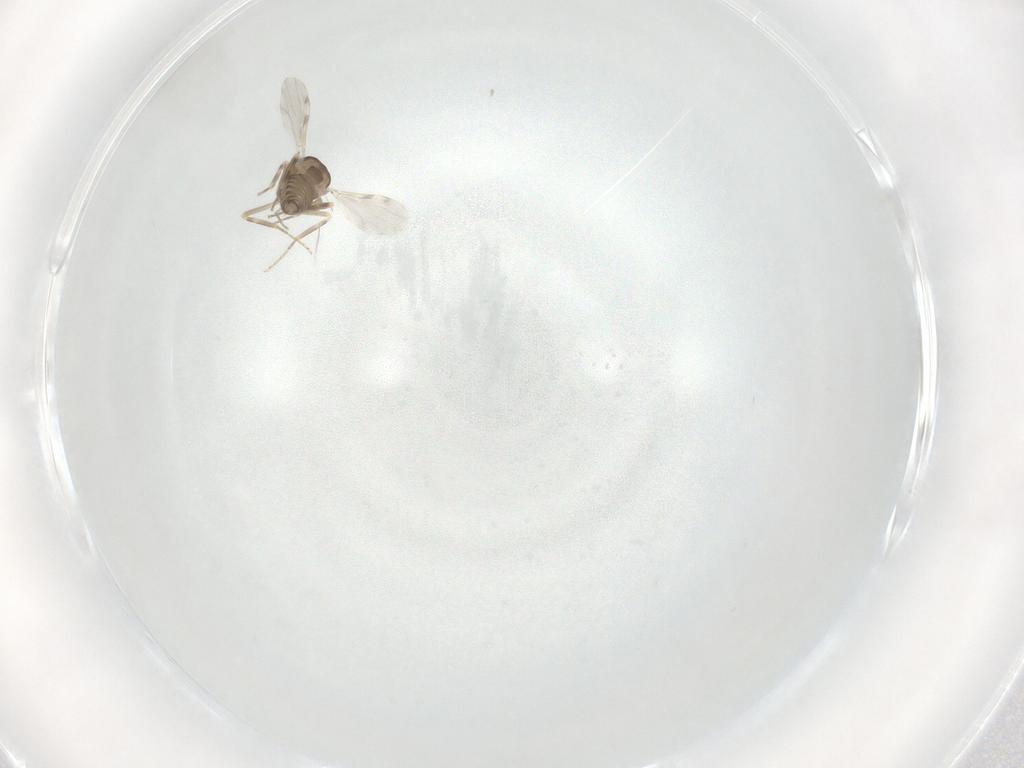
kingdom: Animalia
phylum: Arthropoda
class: Insecta
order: Diptera
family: Ceratopogonidae
